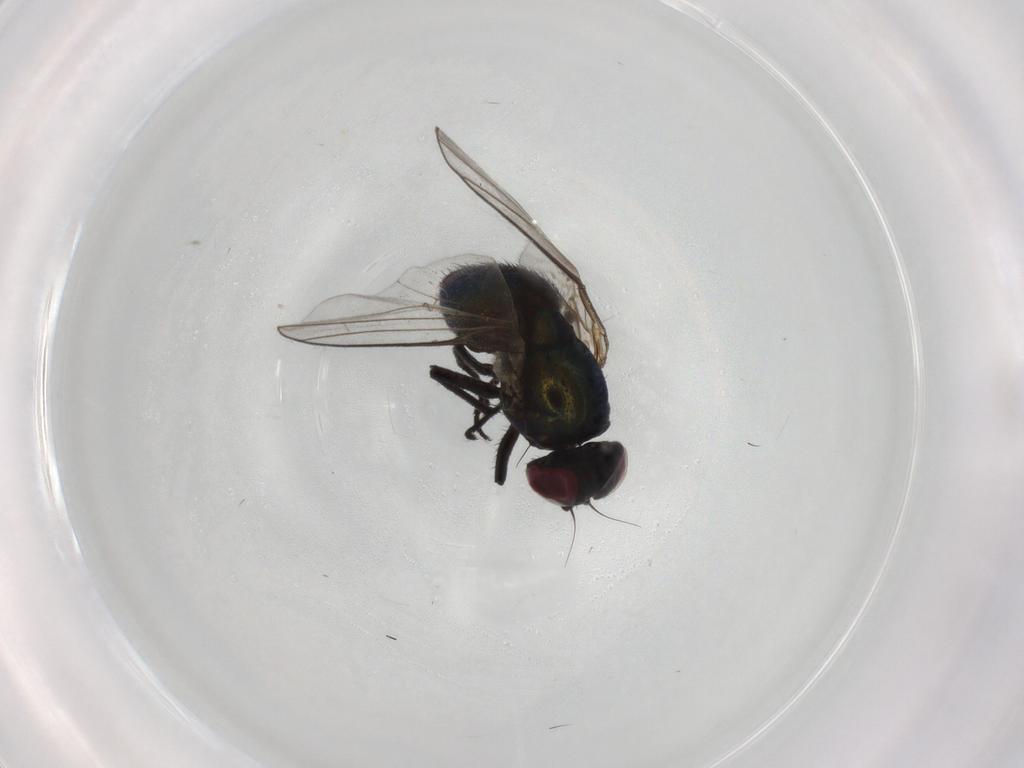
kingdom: Animalia
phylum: Arthropoda
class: Insecta
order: Diptera
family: Agromyzidae
